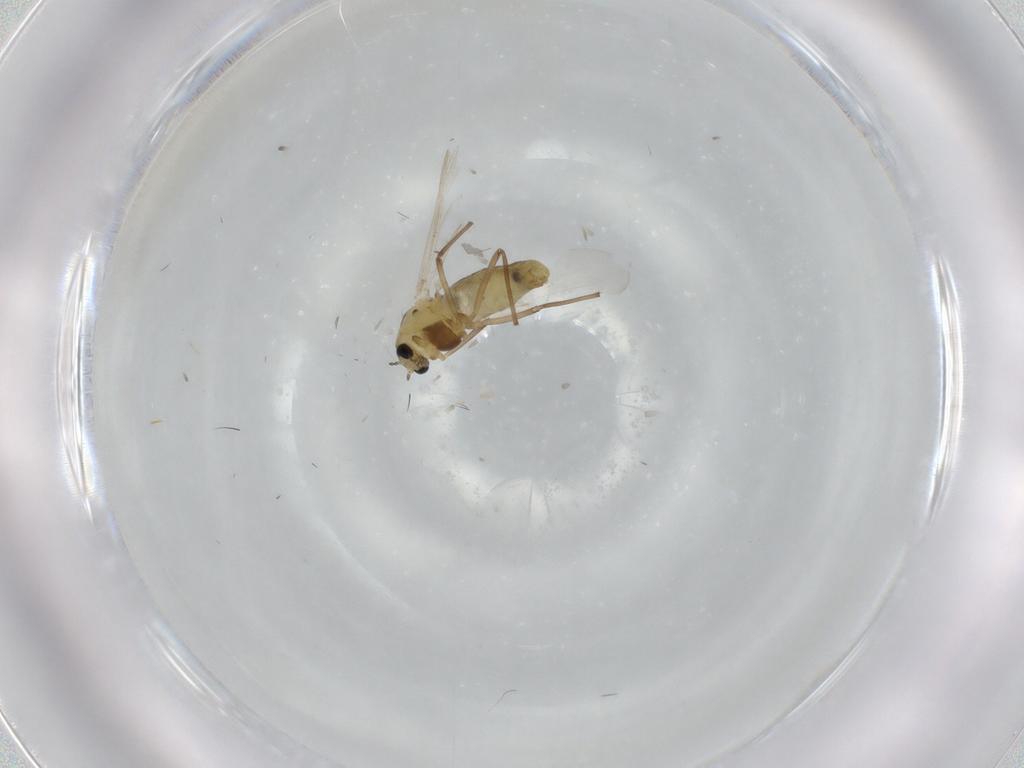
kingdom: Animalia
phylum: Arthropoda
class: Insecta
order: Diptera
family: Chironomidae
